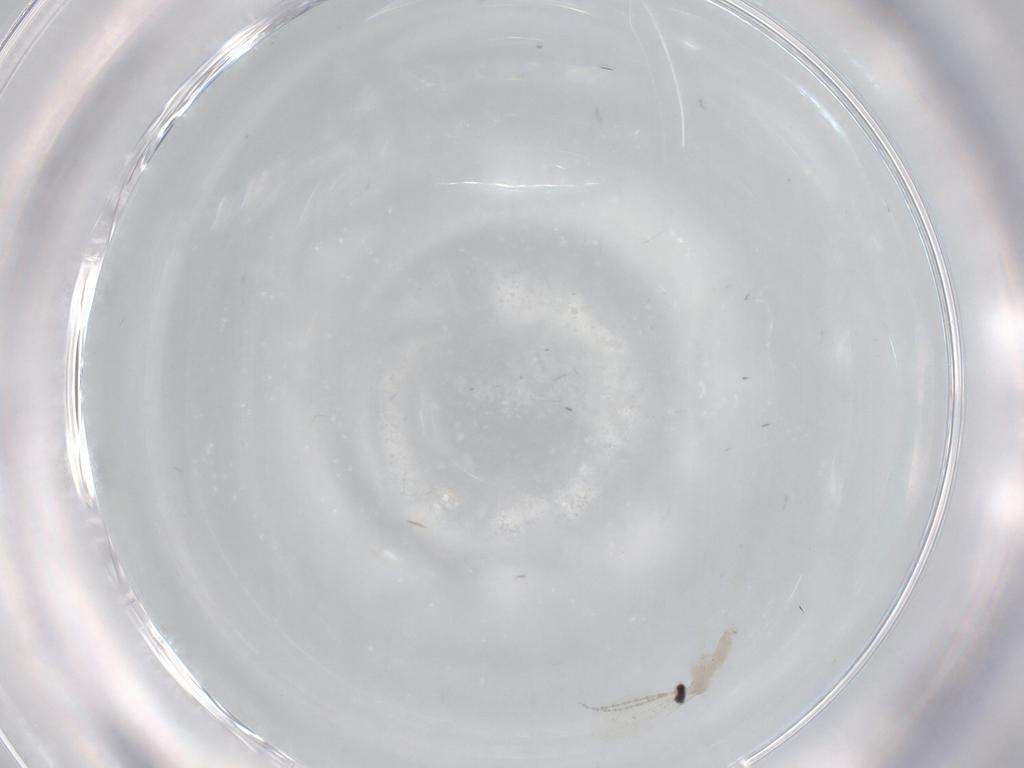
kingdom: Animalia
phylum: Arthropoda
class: Insecta
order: Diptera
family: Cecidomyiidae
